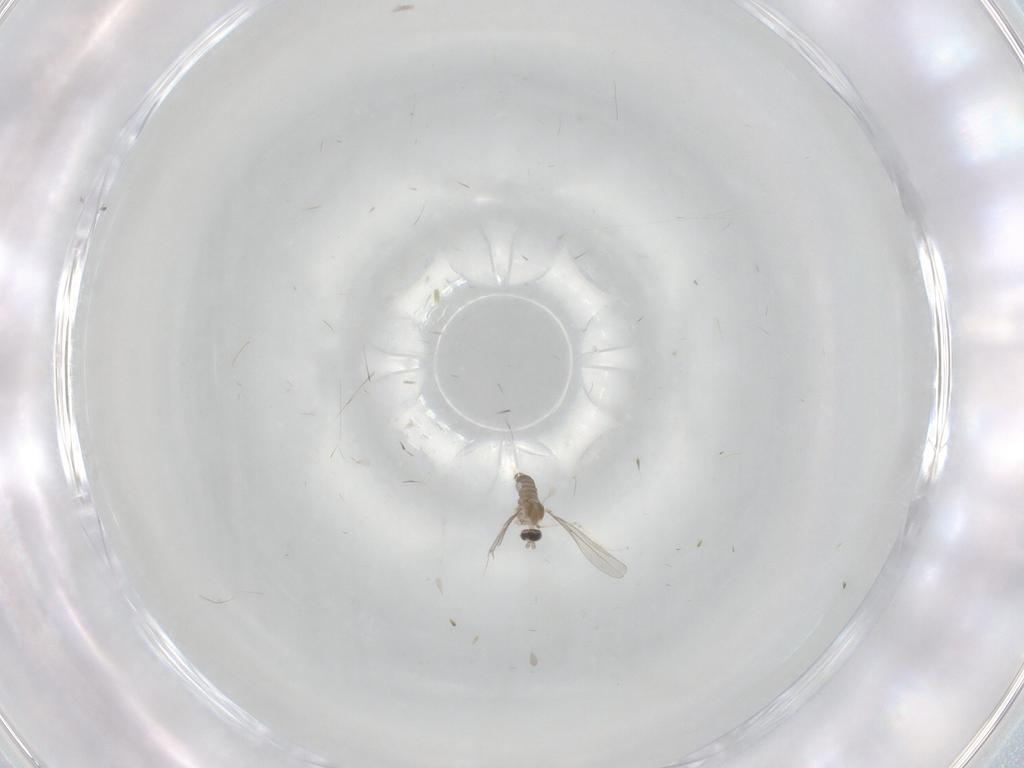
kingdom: Animalia
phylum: Arthropoda
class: Insecta
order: Diptera
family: Cecidomyiidae
